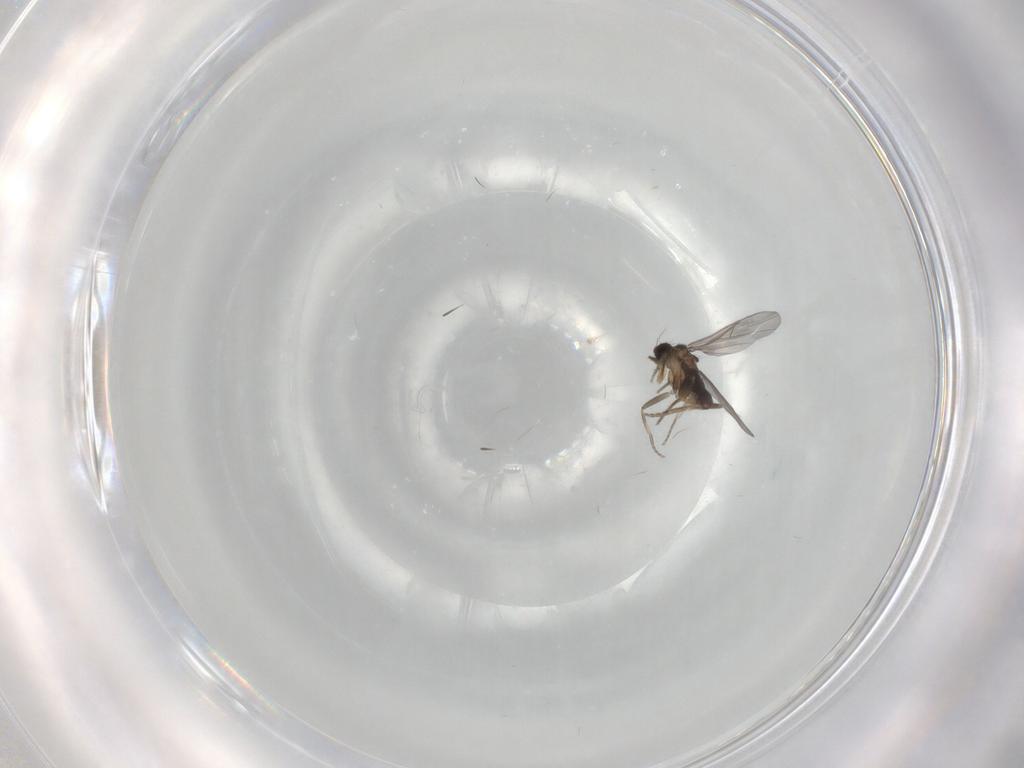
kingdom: Animalia
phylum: Arthropoda
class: Insecta
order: Diptera
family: Phoridae
